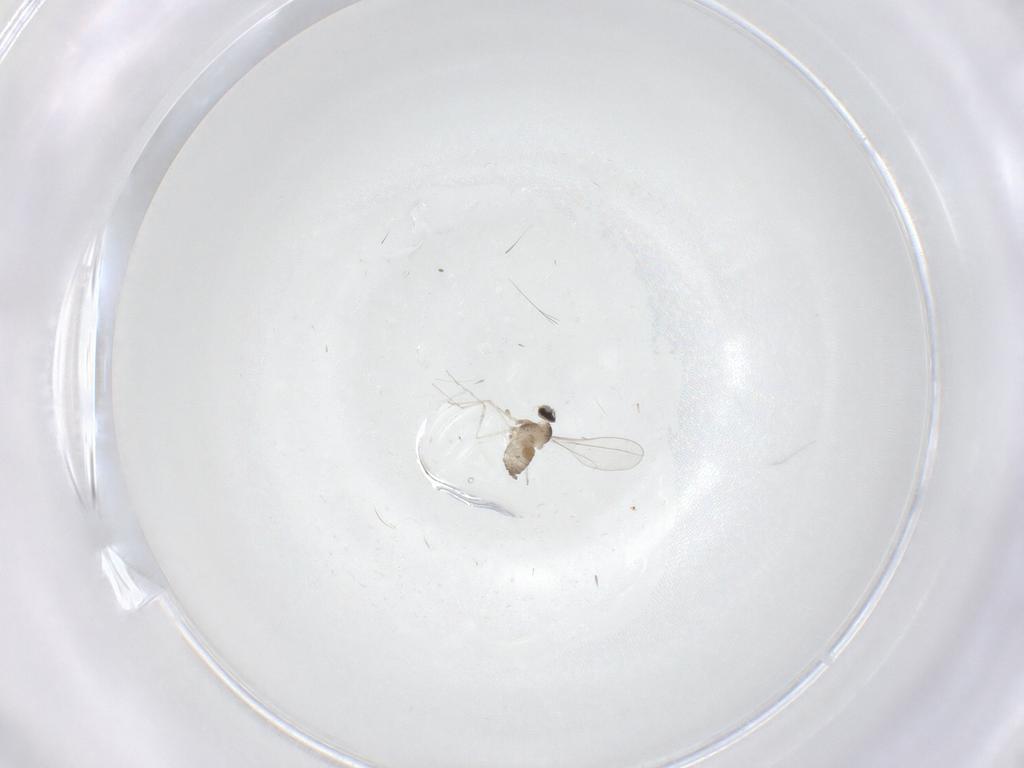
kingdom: Animalia
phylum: Arthropoda
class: Insecta
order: Diptera
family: Cecidomyiidae
